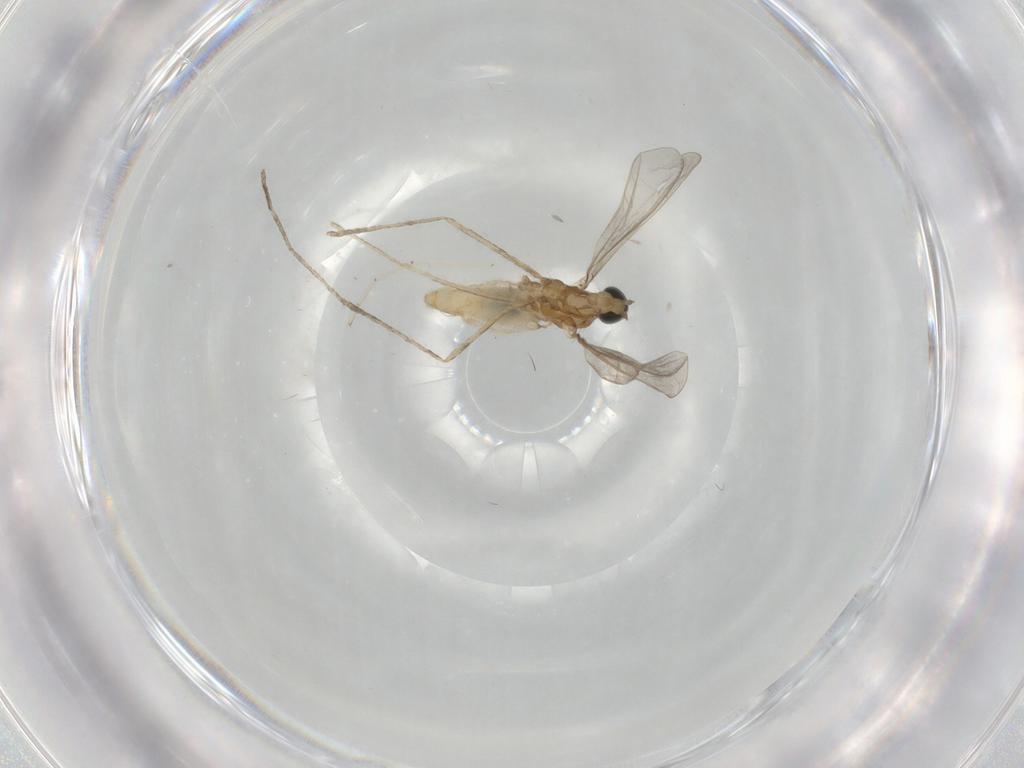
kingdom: Animalia
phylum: Arthropoda
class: Insecta
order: Diptera
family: Cecidomyiidae
